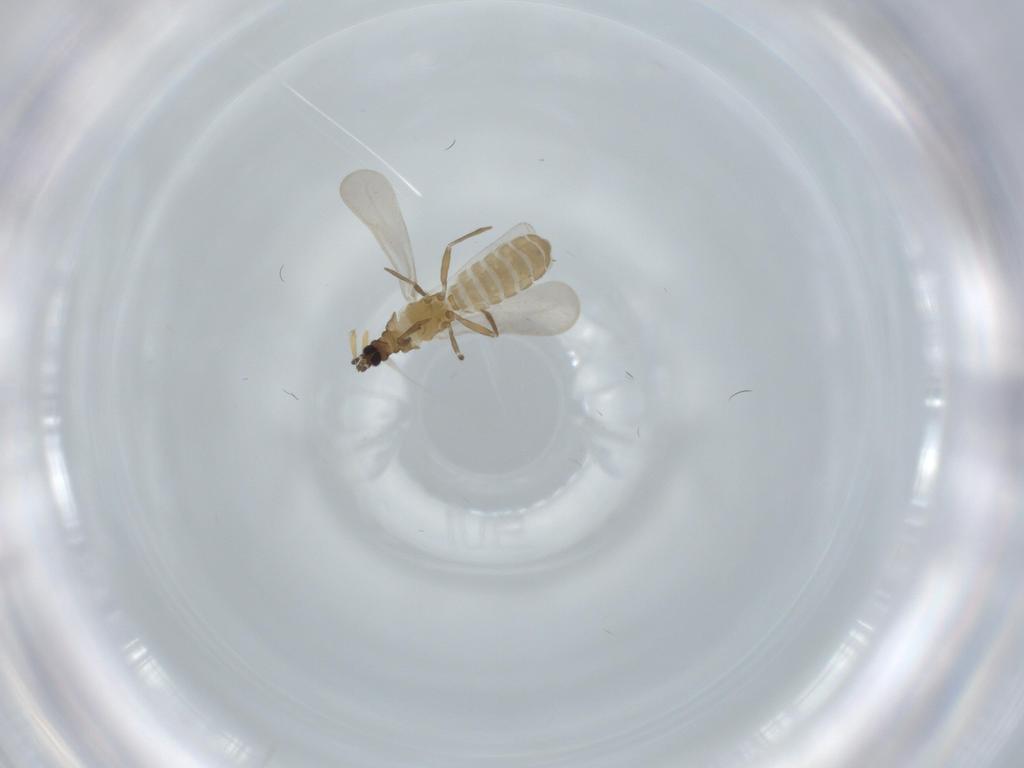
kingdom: Animalia
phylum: Arthropoda
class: Insecta
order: Hemiptera
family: Enicocephalidae
